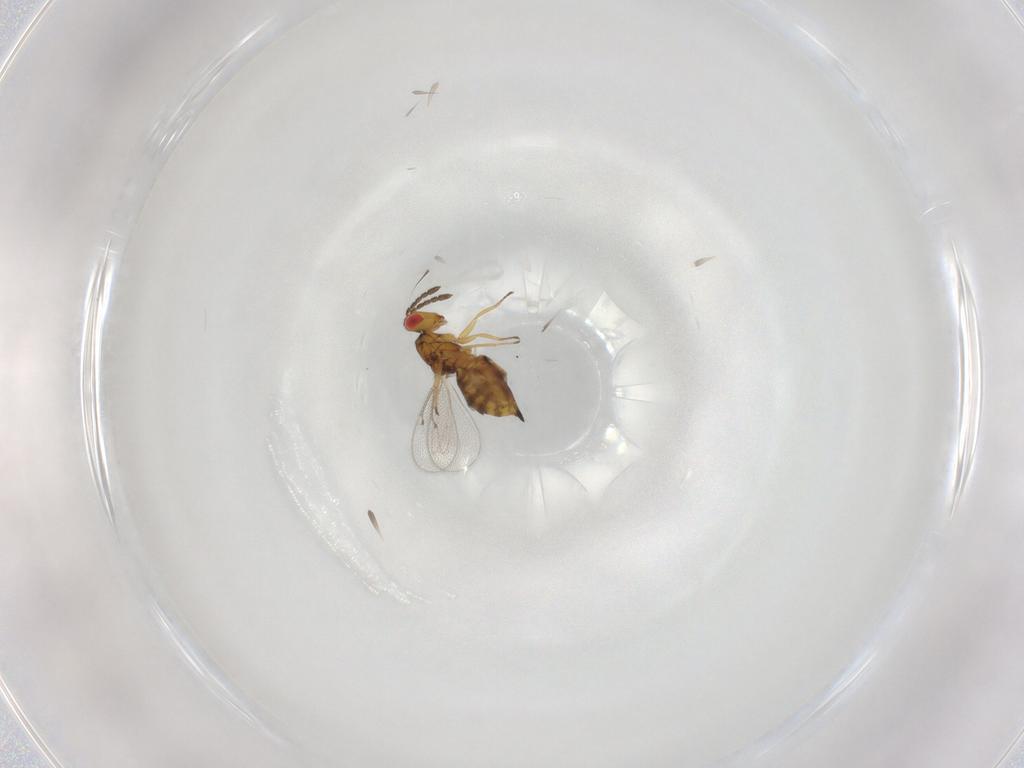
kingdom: Animalia
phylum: Arthropoda
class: Insecta
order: Hymenoptera
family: Eulophidae
